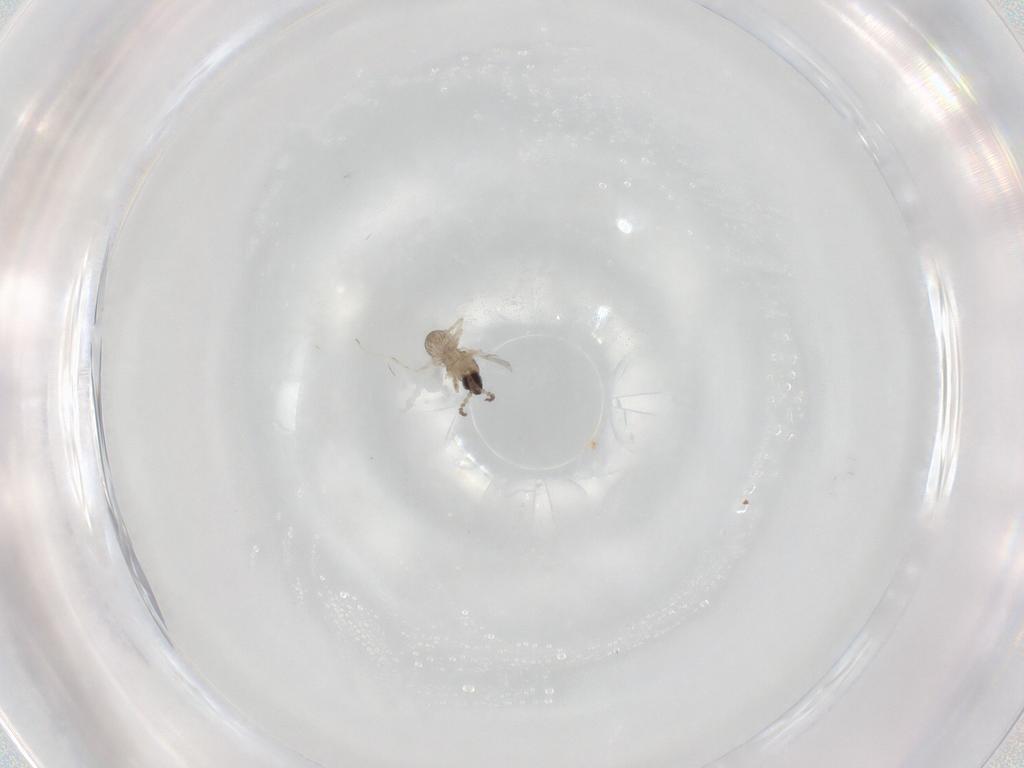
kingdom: Animalia
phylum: Arthropoda
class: Insecta
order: Diptera
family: Cecidomyiidae
